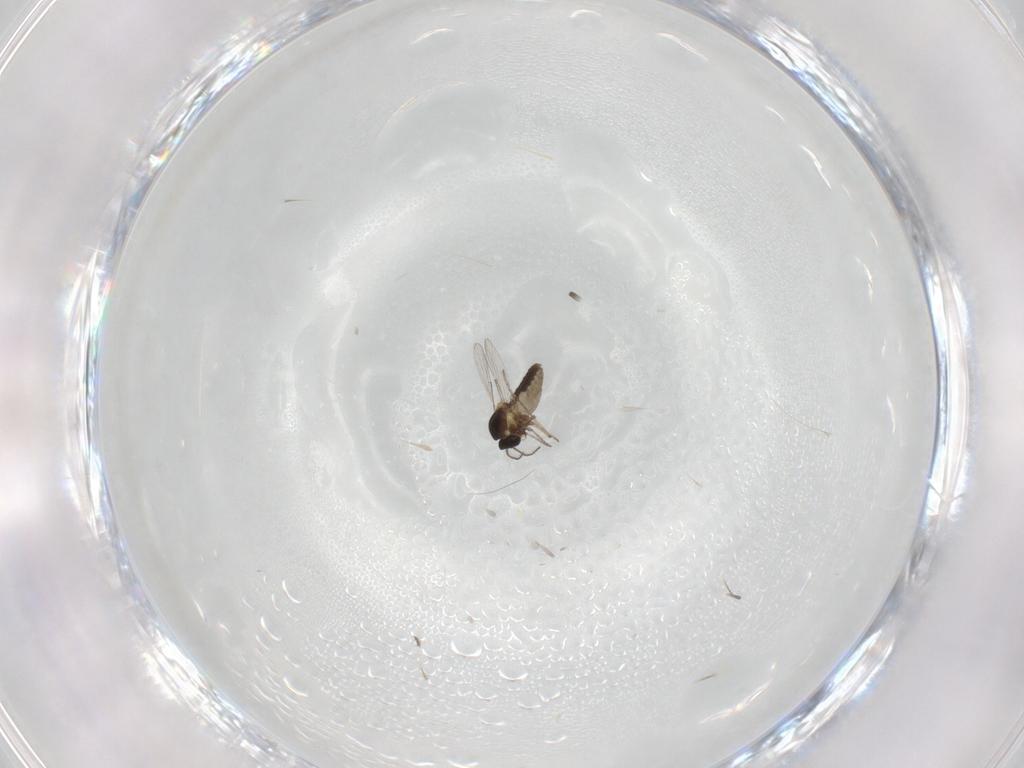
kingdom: Animalia
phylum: Arthropoda
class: Insecta
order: Diptera
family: Ceratopogonidae
